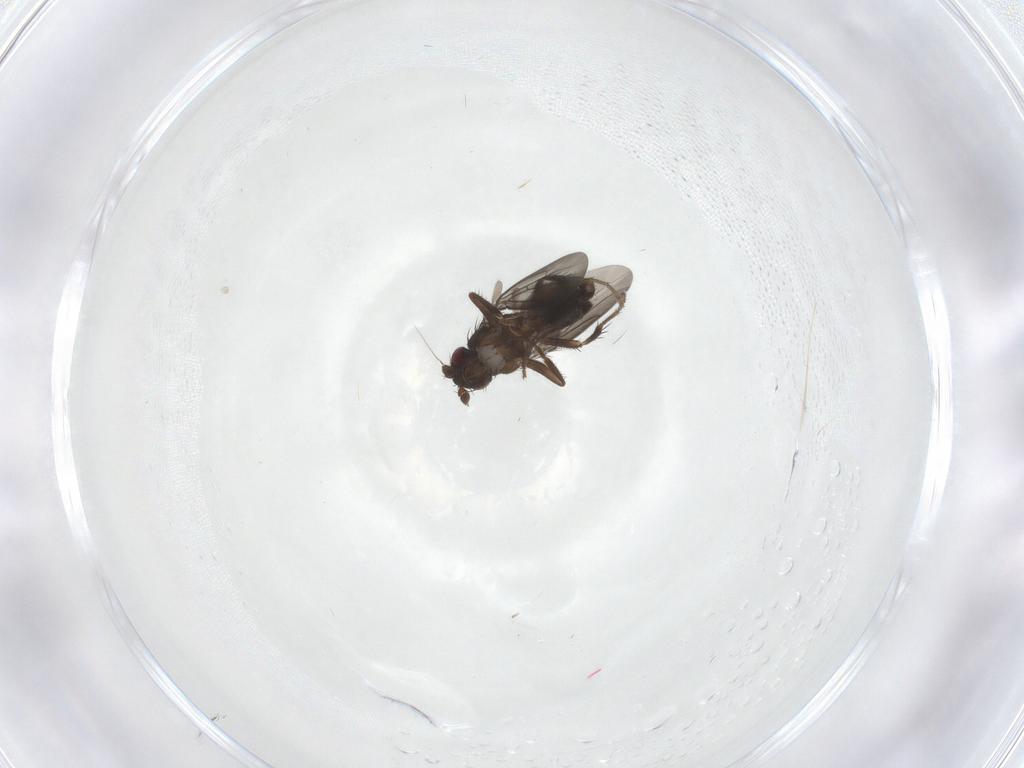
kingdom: Animalia
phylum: Arthropoda
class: Insecta
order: Diptera
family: Sphaeroceridae
